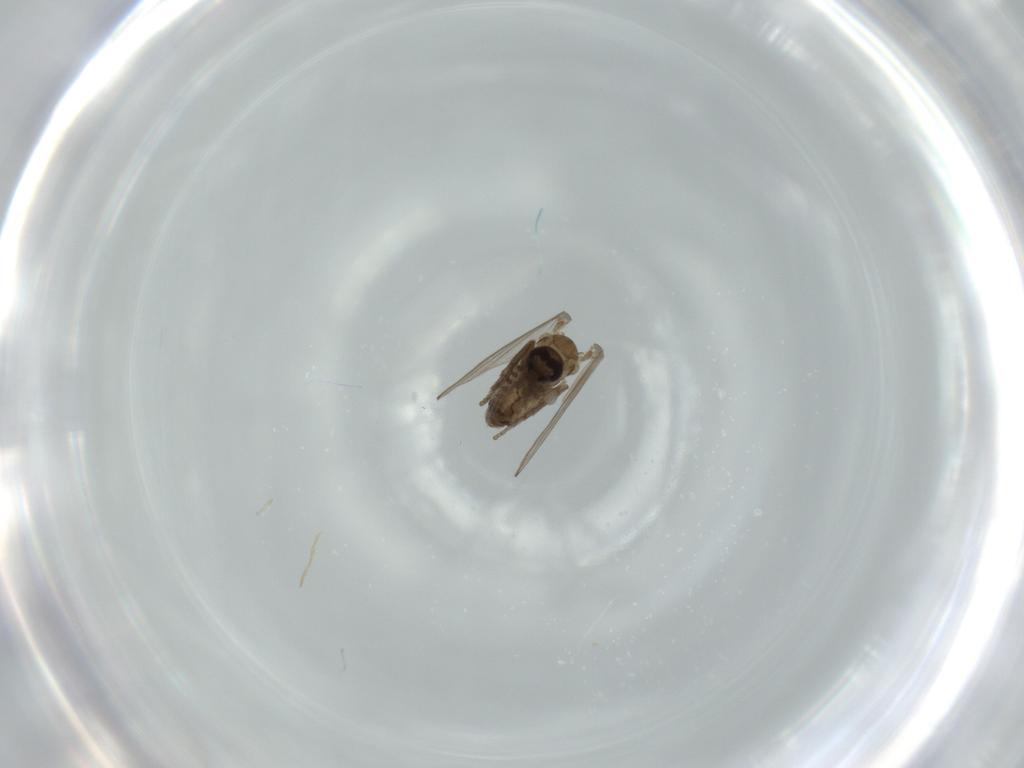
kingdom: Animalia
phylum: Arthropoda
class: Insecta
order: Diptera
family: Psychodidae
